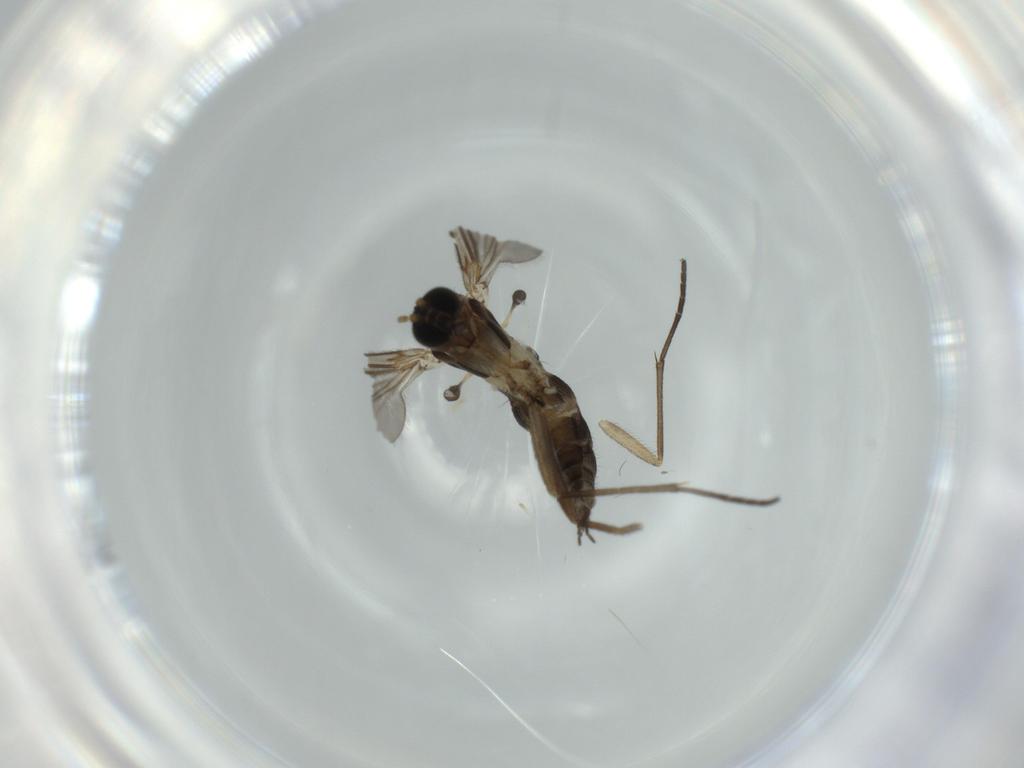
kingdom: Animalia
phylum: Arthropoda
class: Insecta
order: Diptera
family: Sciaridae
